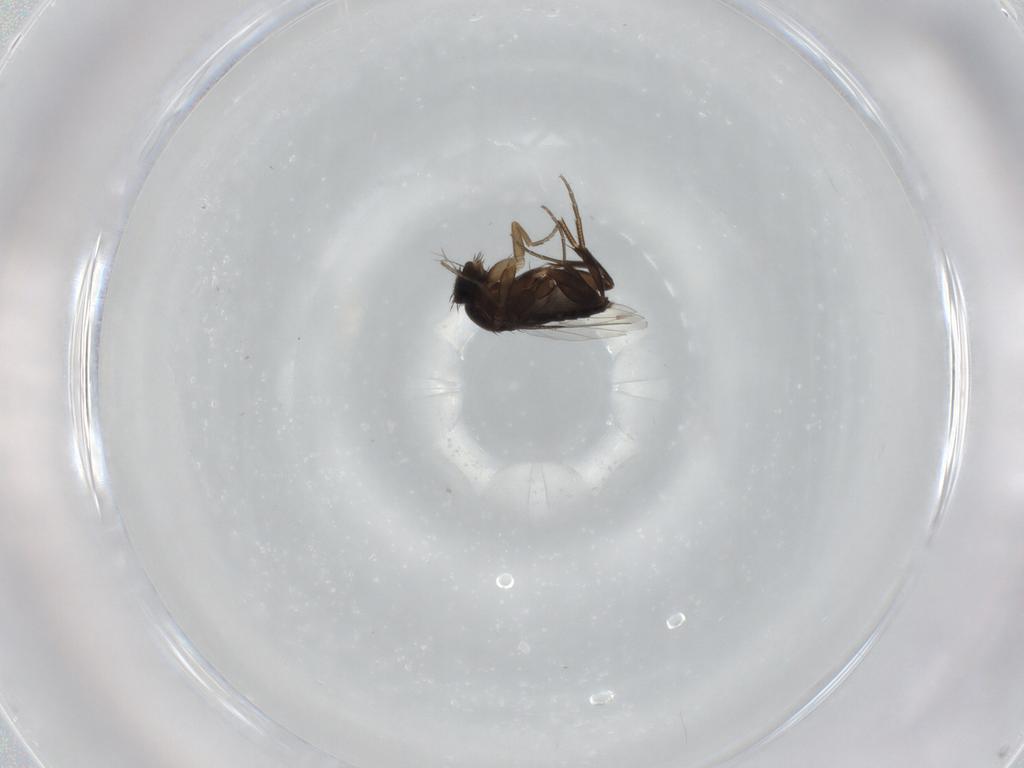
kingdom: Animalia
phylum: Arthropoda
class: Insecta
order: Diptera
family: Phoridae
